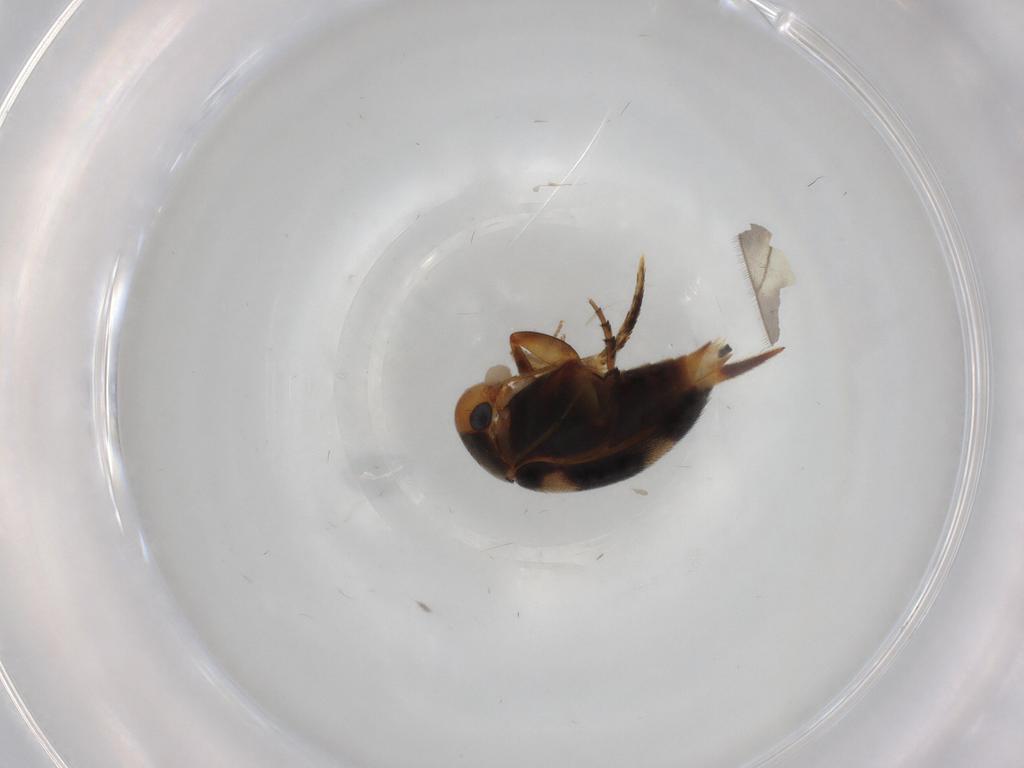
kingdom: Animalia
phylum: Arthropoda
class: Insecta
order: Coleoptera
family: Mordellidae
